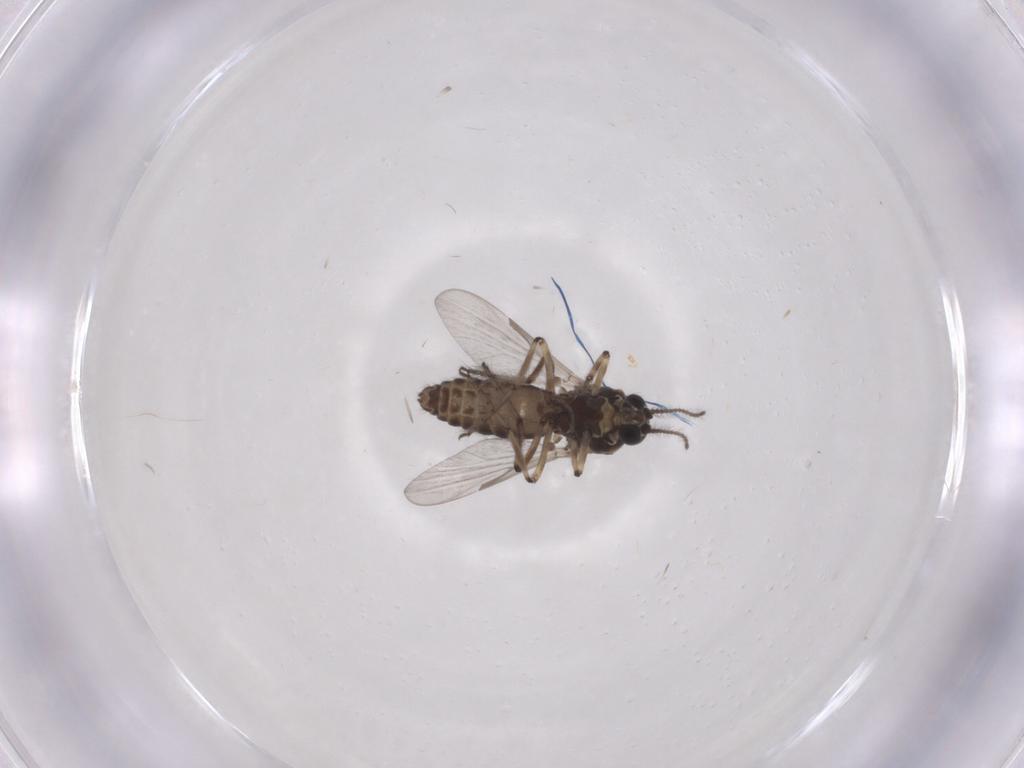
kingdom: Animalia
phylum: Arthropoda
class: Insecta
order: Diptera
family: Ceratopogonidae
